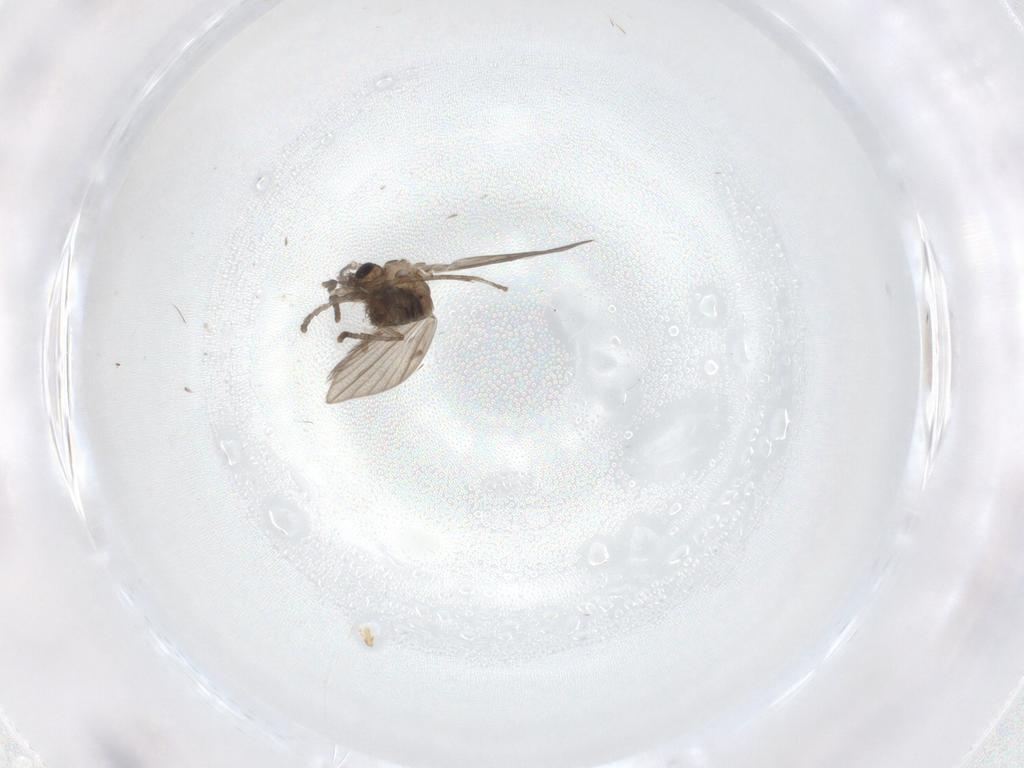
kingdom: Animalia
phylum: Arthropoda
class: Insecta
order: Diptera
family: Psychodidae
